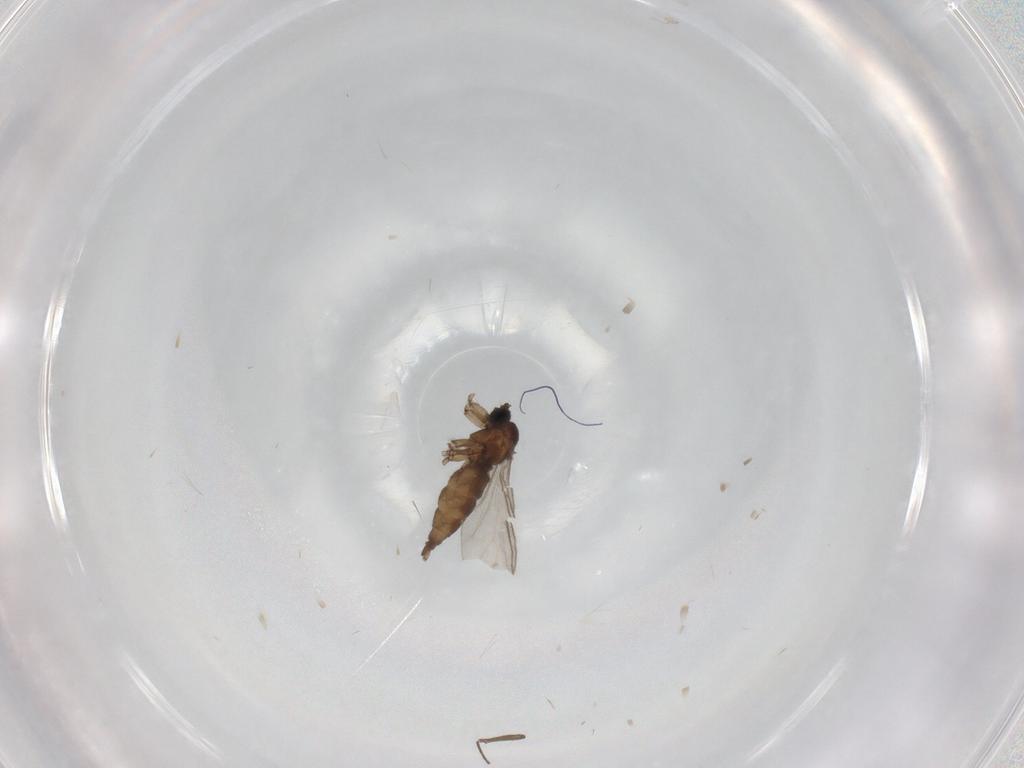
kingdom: Animalia
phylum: Arthropoda
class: Insecta
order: Diptera
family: Sciaridae
